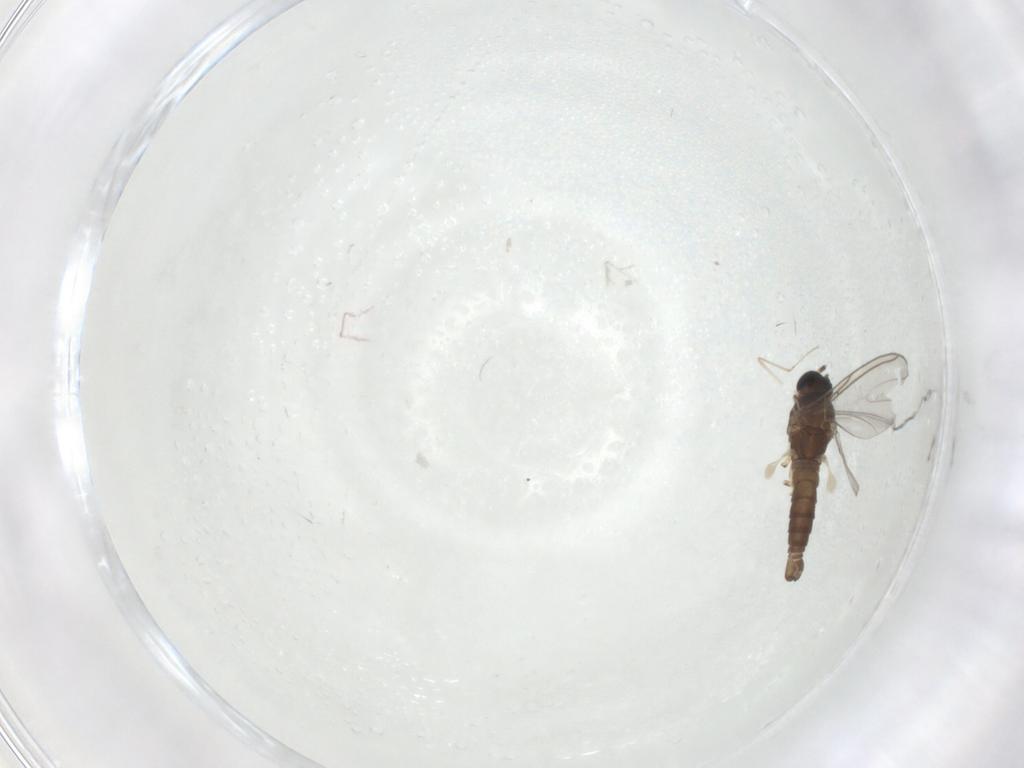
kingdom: Animalia
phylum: Arthropoda
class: Insecta
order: Diptera
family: Sciaridae
